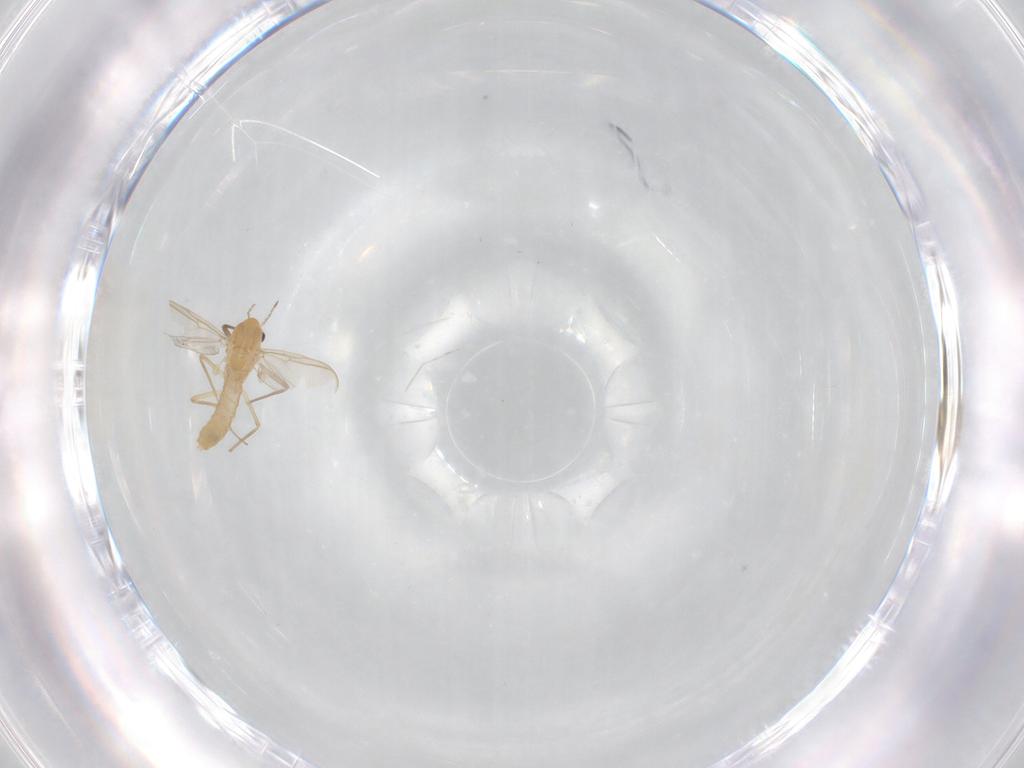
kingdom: Animalia
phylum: Arthropoda
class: Insecta
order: Diptera
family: Chironomidae
